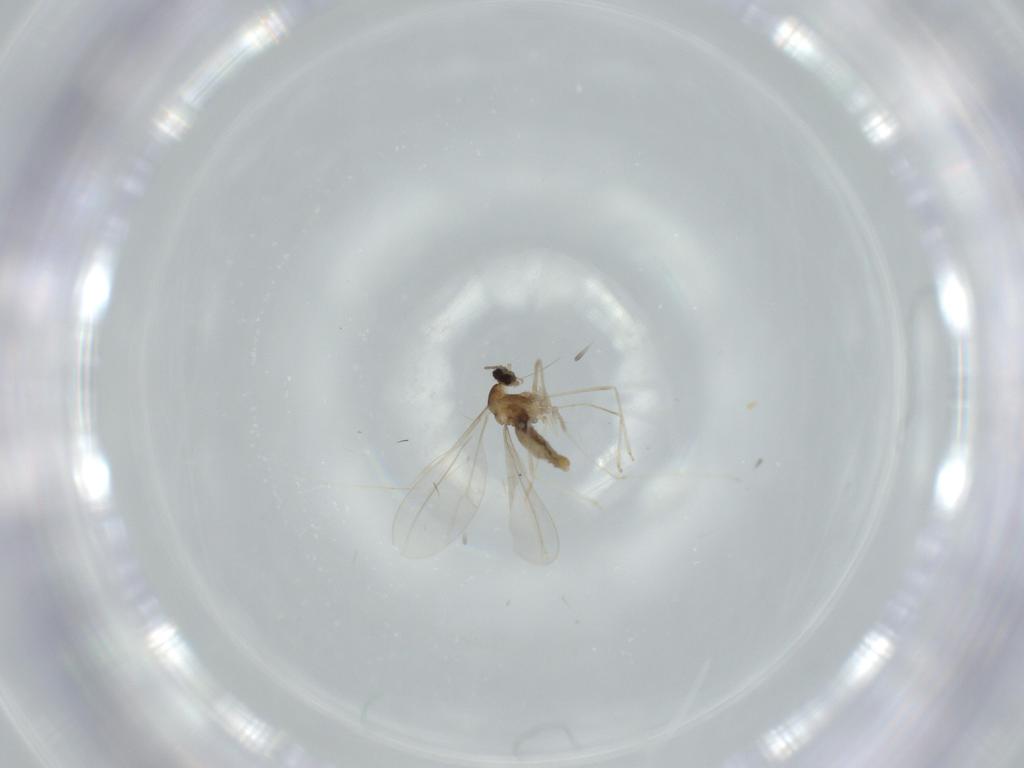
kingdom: Animalia
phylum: Arthropoda
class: Insecta
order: Diptera
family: Cecidomyiidae
